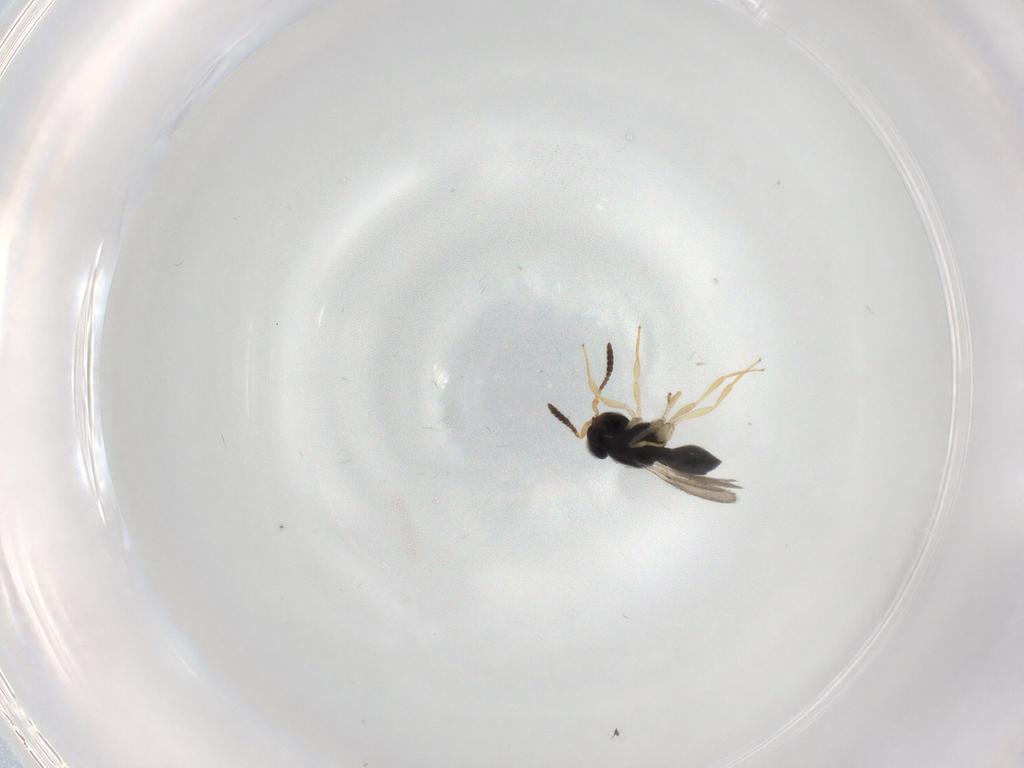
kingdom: Animalia
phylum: Arthropoda
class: Insecta
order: Hymenoptera
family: Scelionidae
